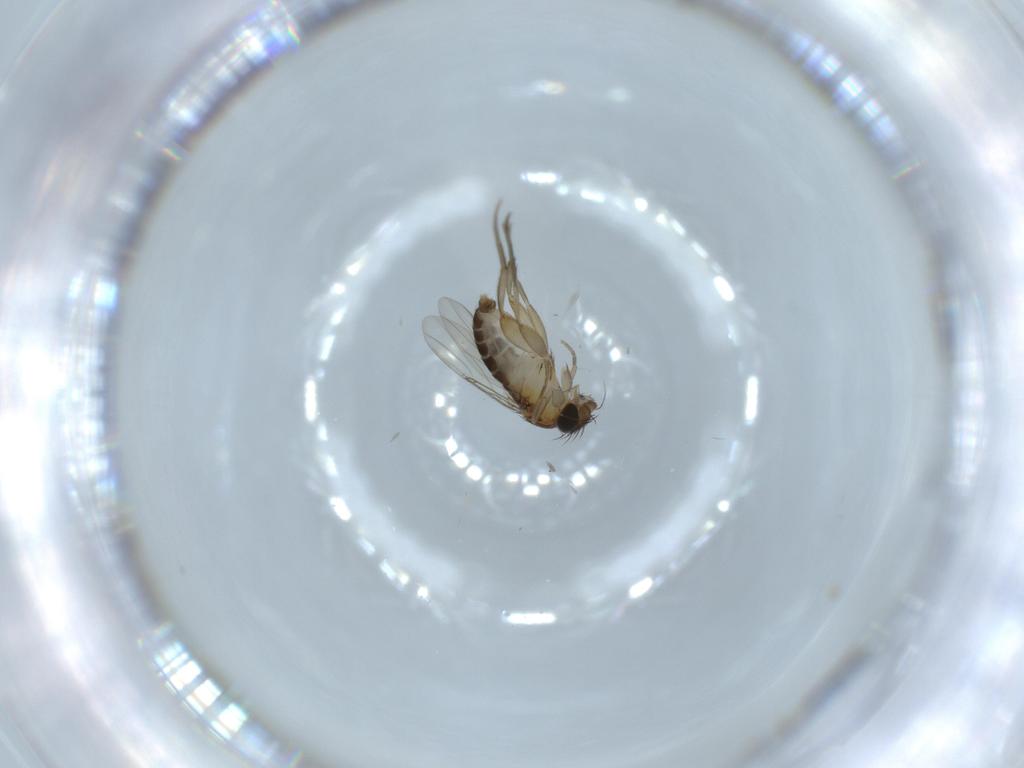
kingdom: Animalia
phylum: Arthropoda
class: Insecta
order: Diptera
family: Phoridae
